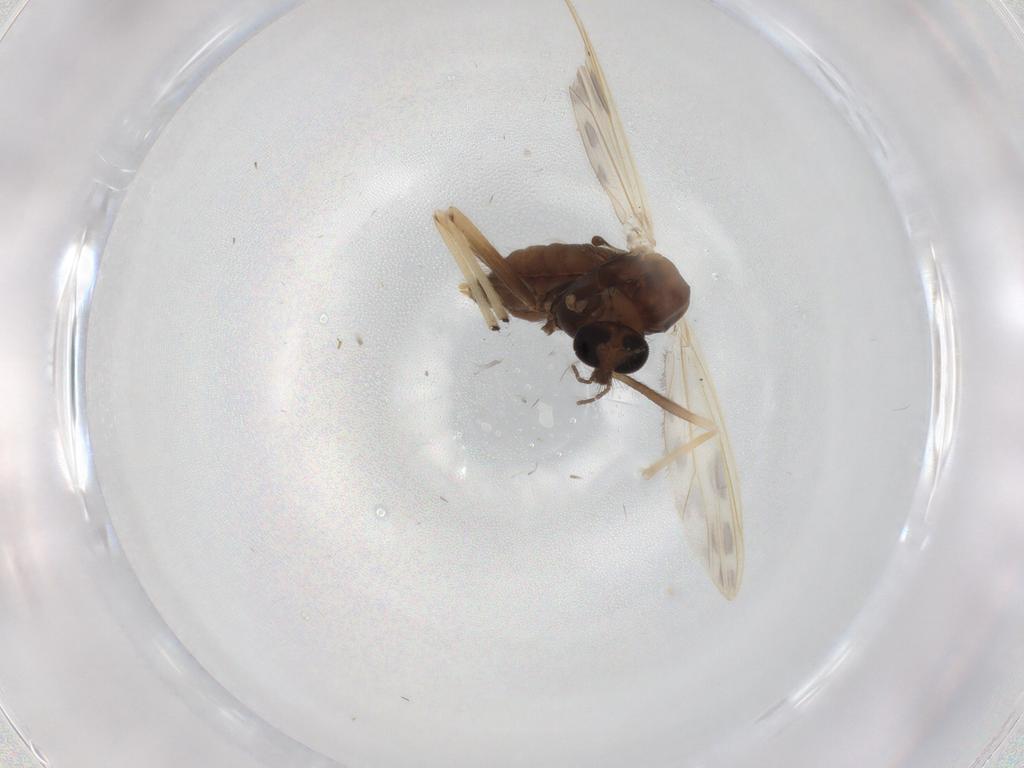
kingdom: Animalia
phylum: Arthropoda
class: Insecta
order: Diptera
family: Chironomidae
